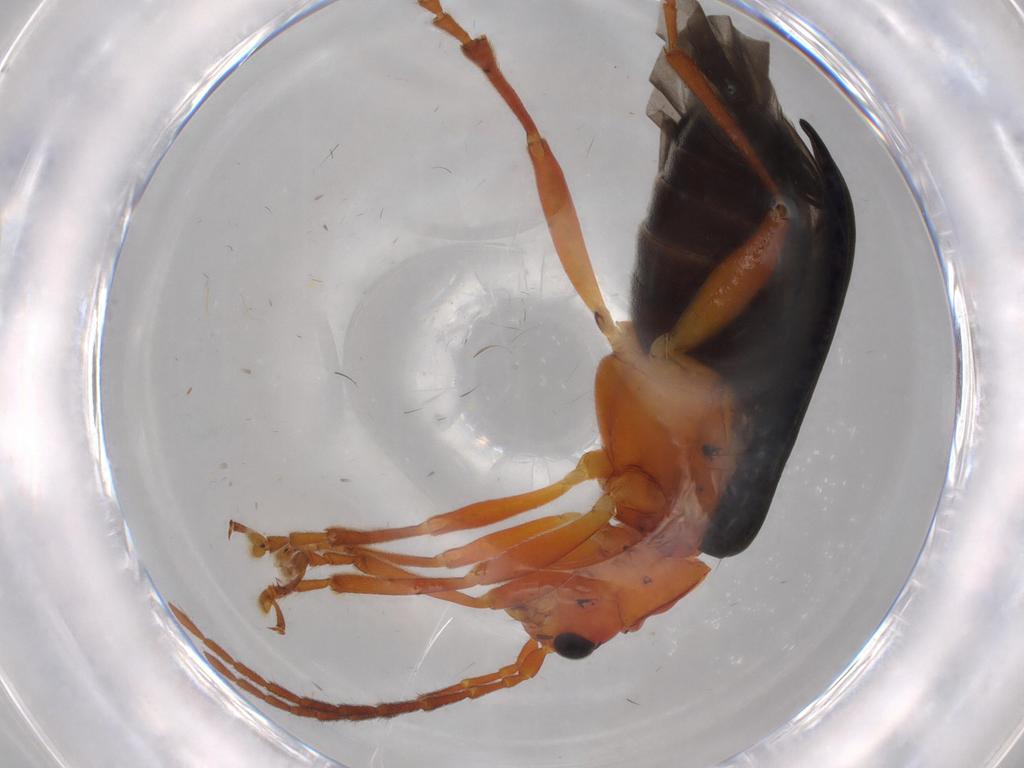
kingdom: Animalia
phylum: Arthropoda
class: Insecta
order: Coleoptera
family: Chrysomelidae
